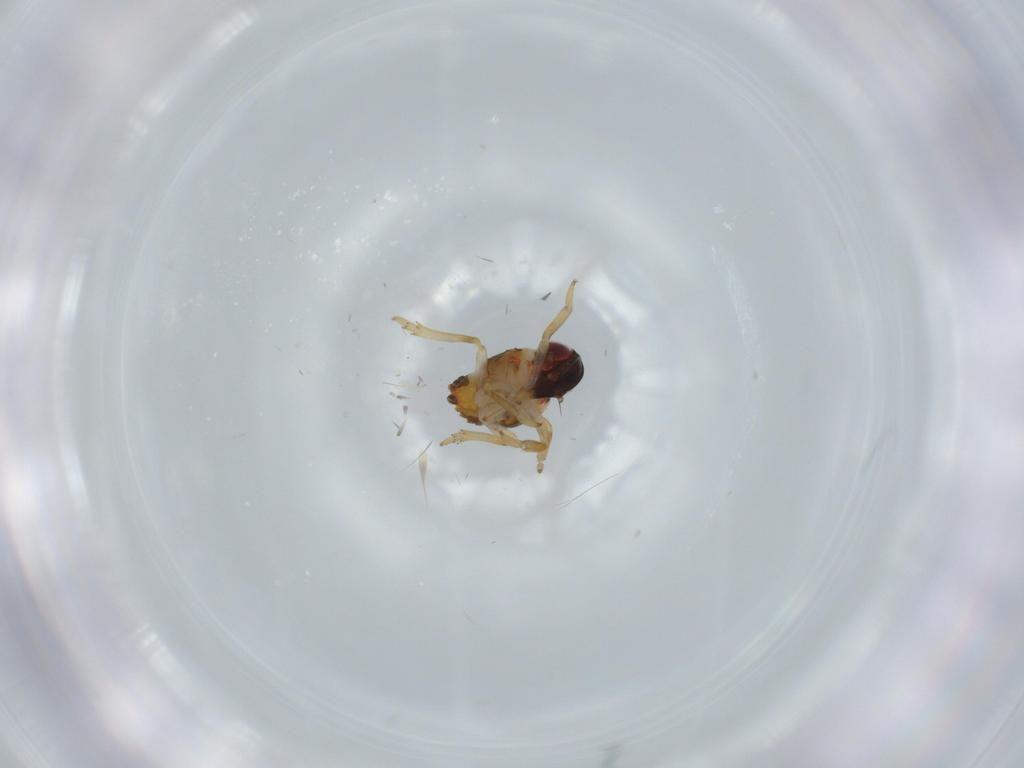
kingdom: Animalia
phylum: Arthropoda
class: Insecta
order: Hemiptera
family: Issidae
